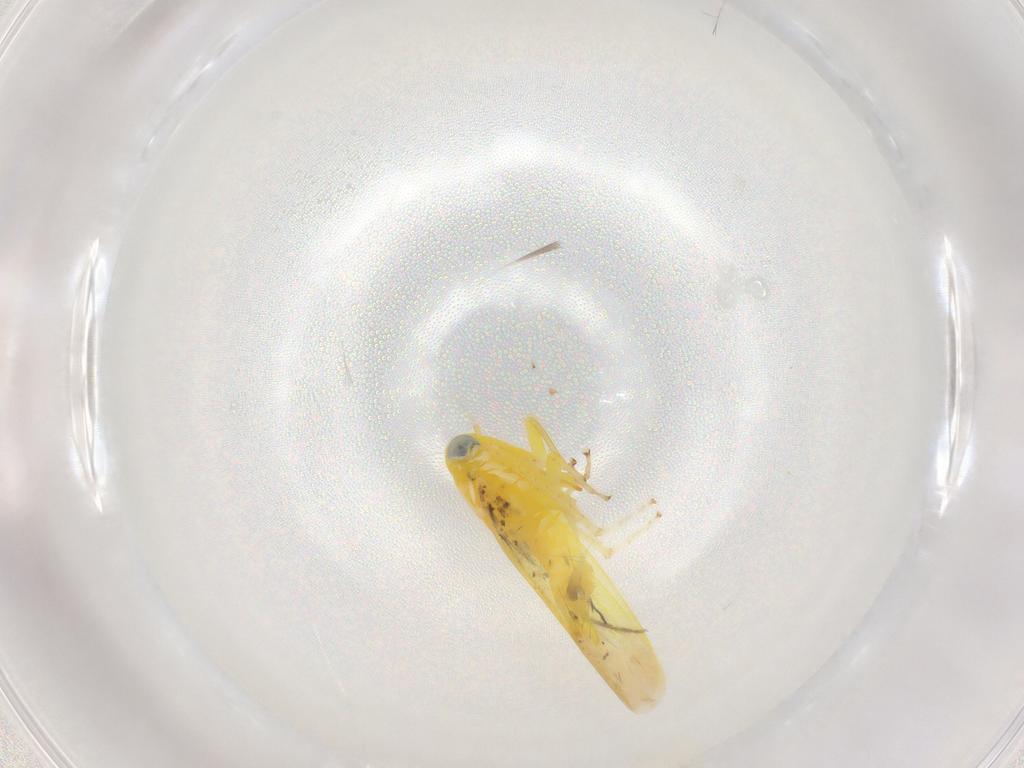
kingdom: Animalia
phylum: Arthropoda
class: Insecta
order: Hemiptera
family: Cicadellidae
